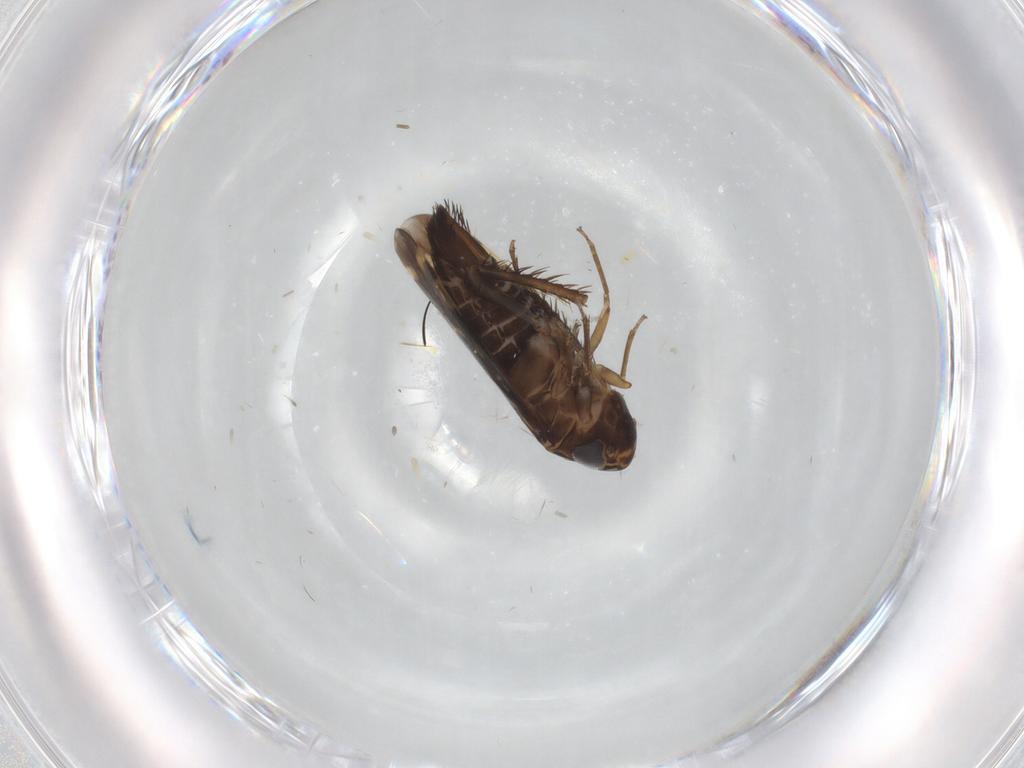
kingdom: Animalia
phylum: Arthropoda
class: Insecta
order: Hemiptera
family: Cicadellidae
